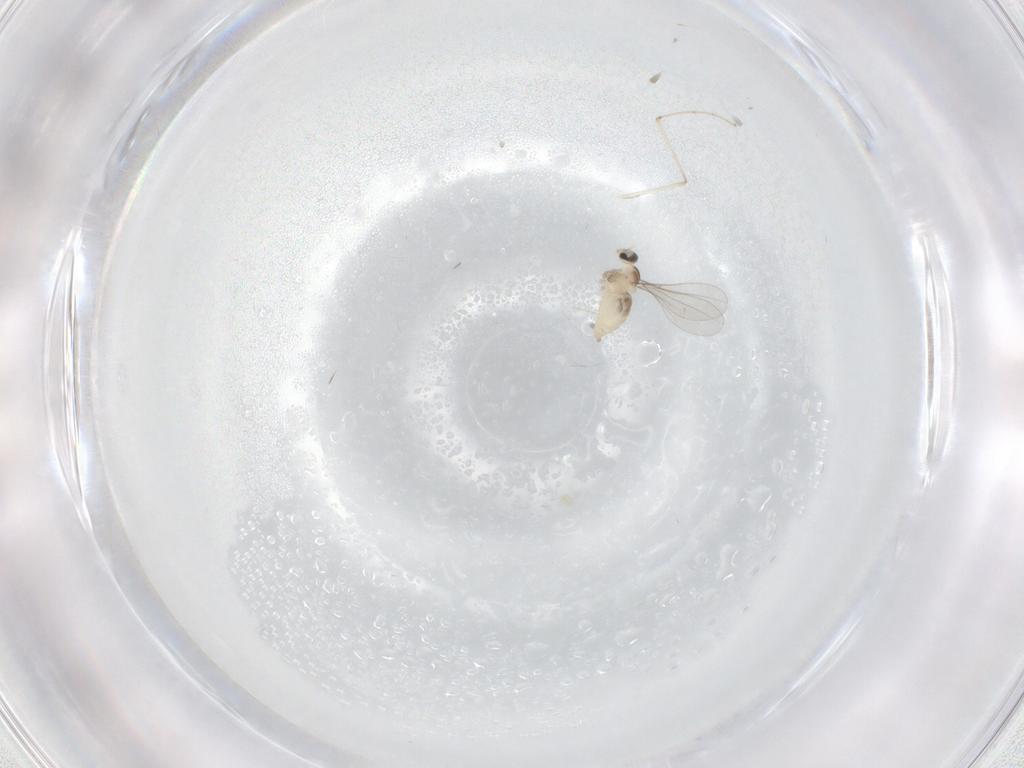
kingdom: Animalia
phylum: Arthropoda
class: Insecta
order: Diptera
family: Cecidomyiidae
